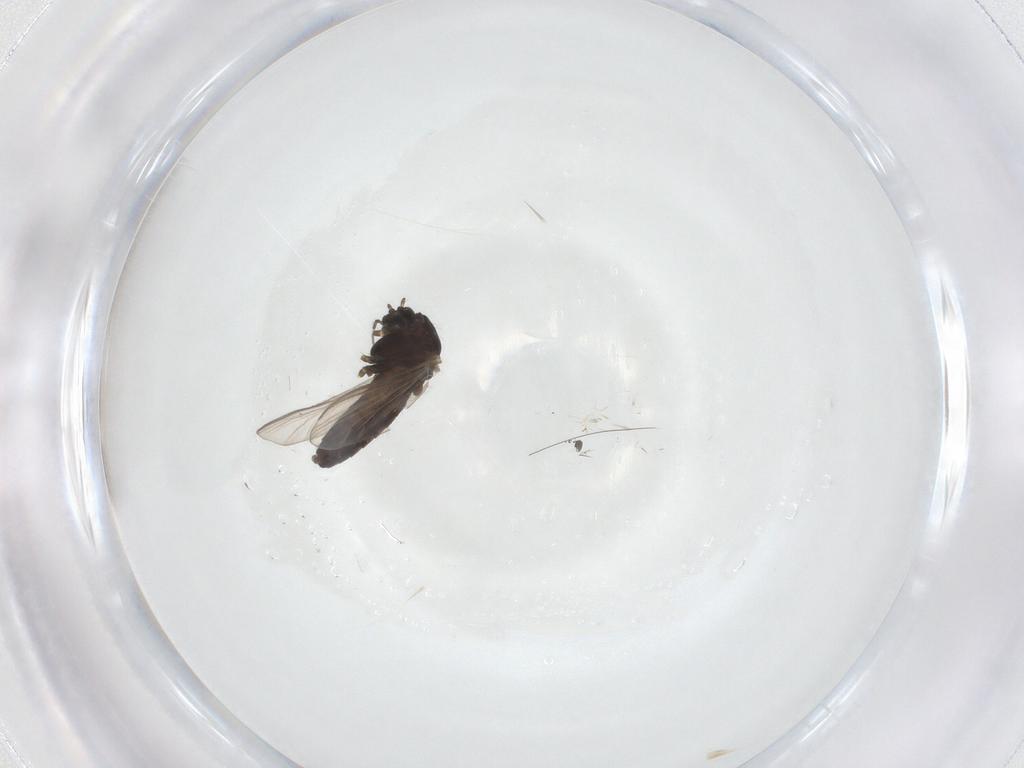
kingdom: Animalia
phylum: Arthropoda
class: Insecta
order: Diptera
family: Chironomidae
